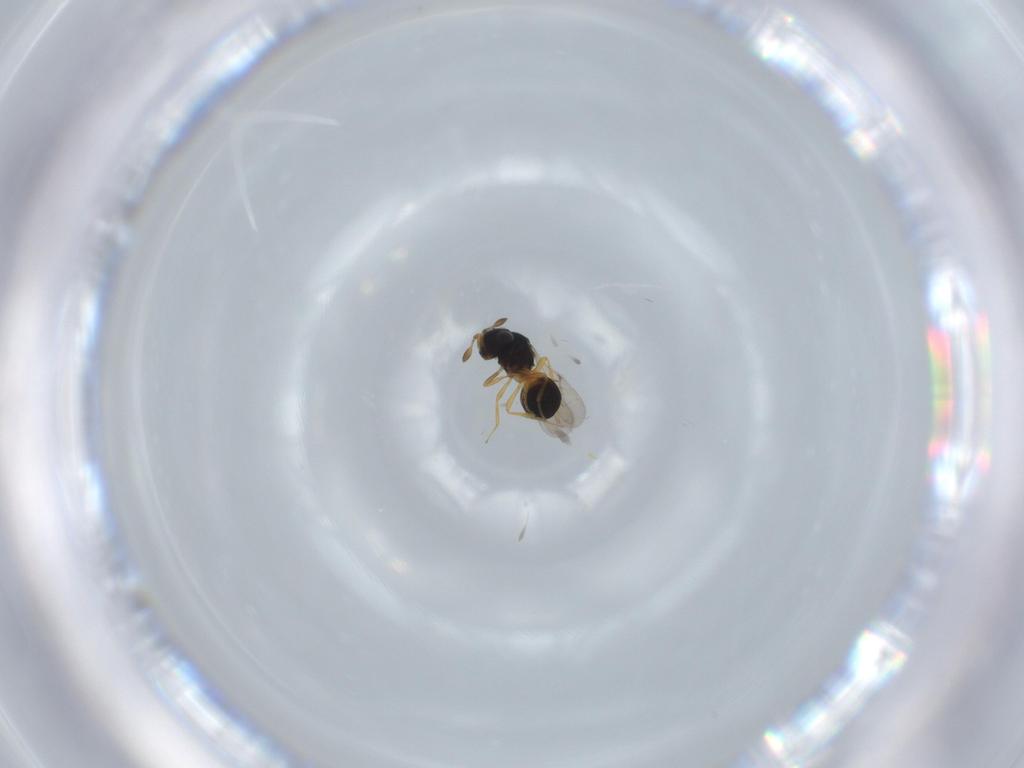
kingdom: Animalia
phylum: Arthropoda
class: Insecta
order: Hymenoptera
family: Scelionidae
